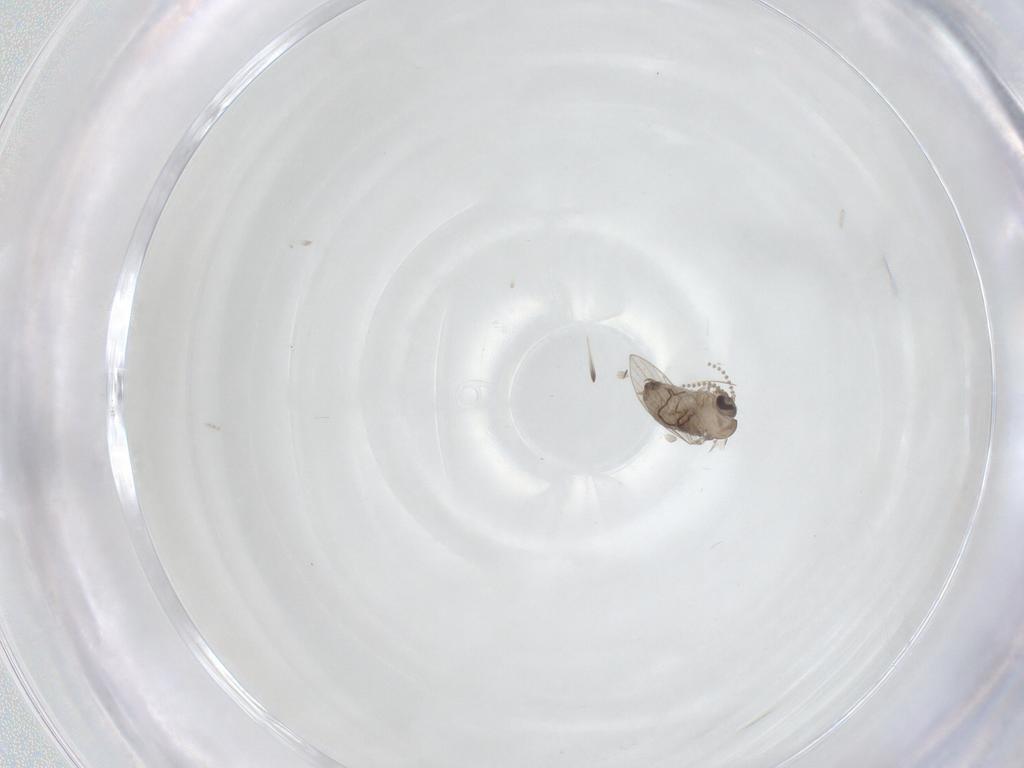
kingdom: Animalia
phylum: Arthropoda
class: Insecta
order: Diptera
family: Psychodidae
